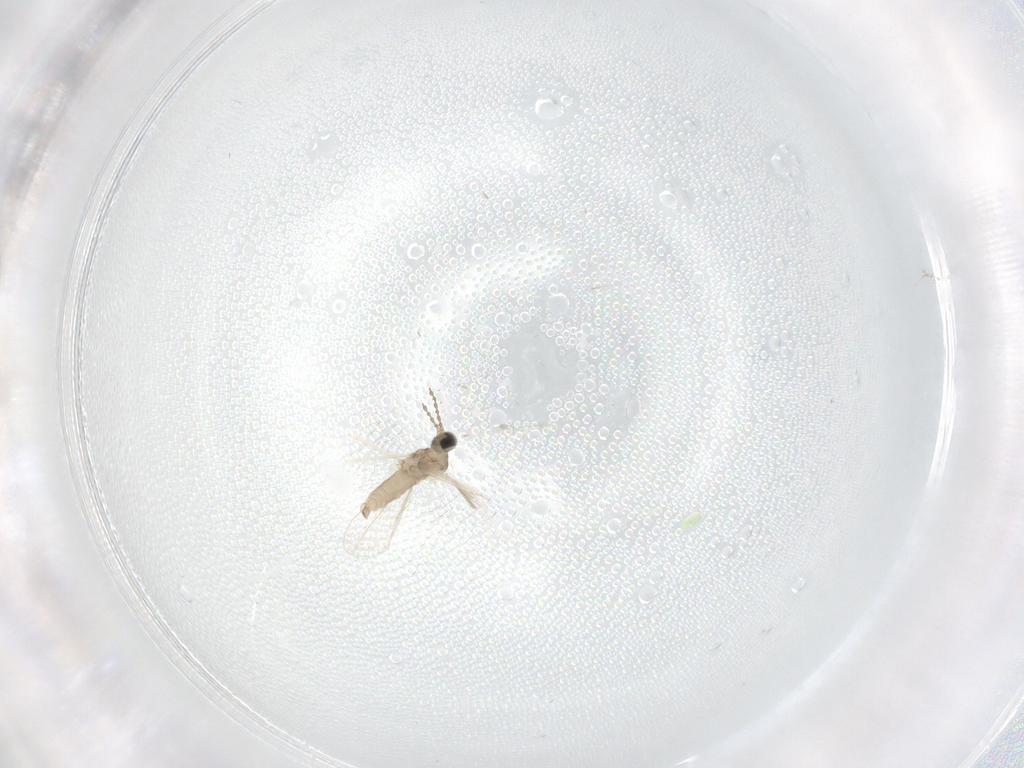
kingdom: Animalia
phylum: Arthropoda
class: Insecta
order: Diptera
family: Cecidomyiidae
